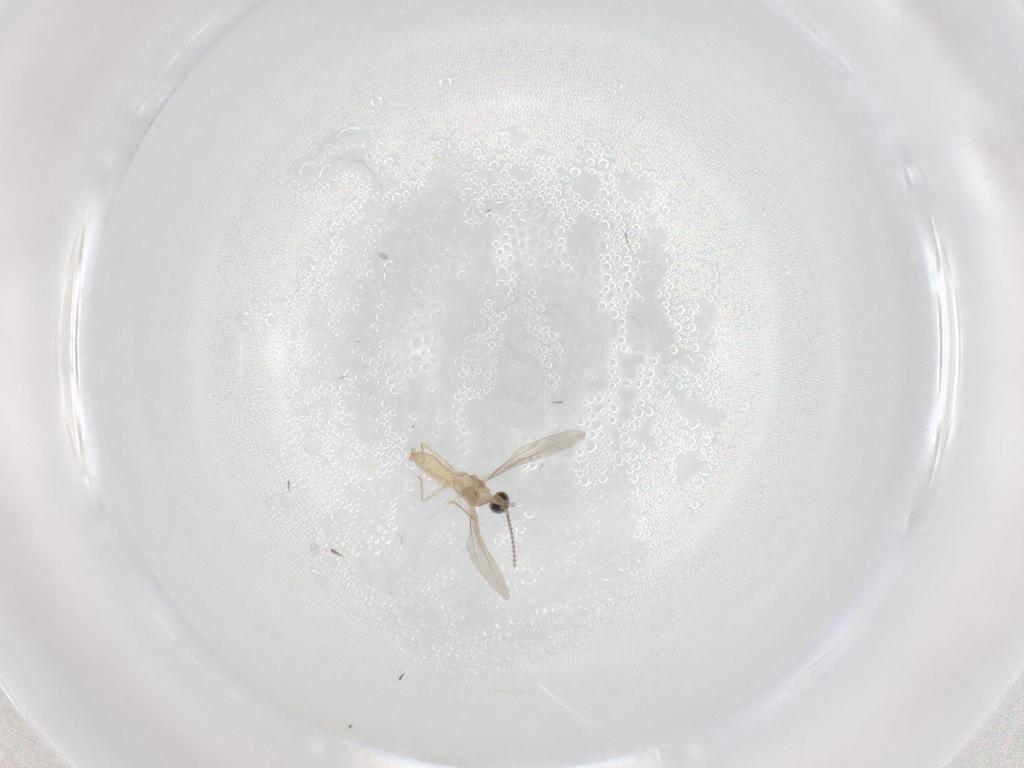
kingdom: Animalia
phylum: Arthropoda
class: Insecta
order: Diptera
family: Cecidomyiidae
